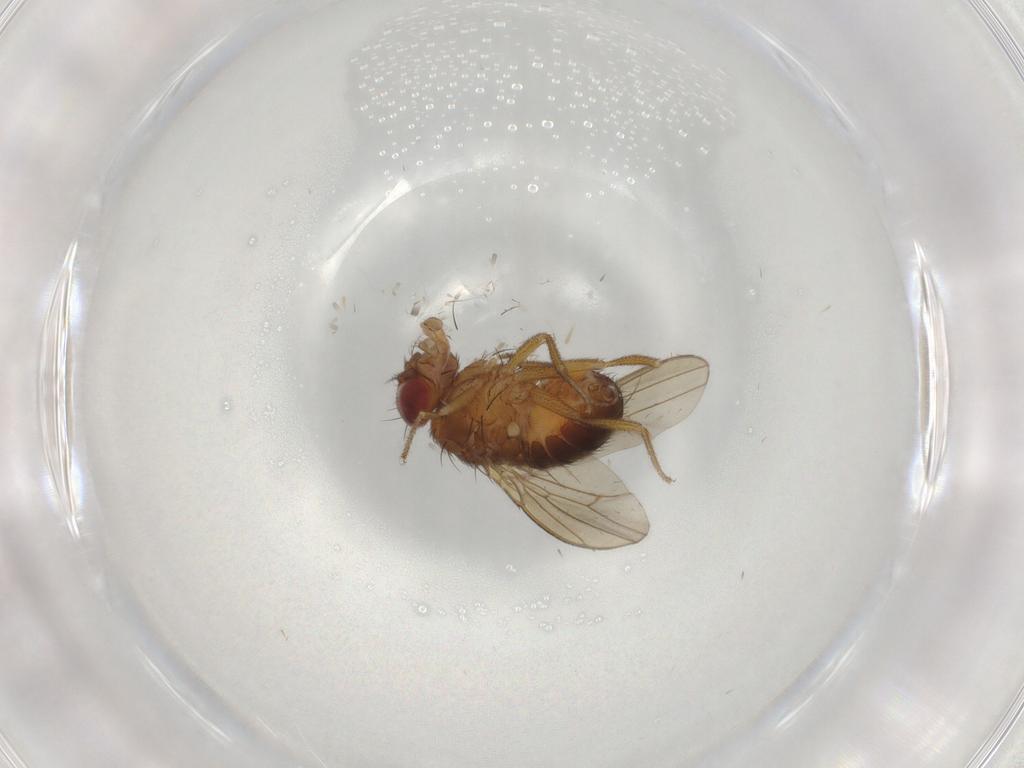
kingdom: Animalia
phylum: Arthropoda
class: Insecta
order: Diptera
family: Drosophilidae
